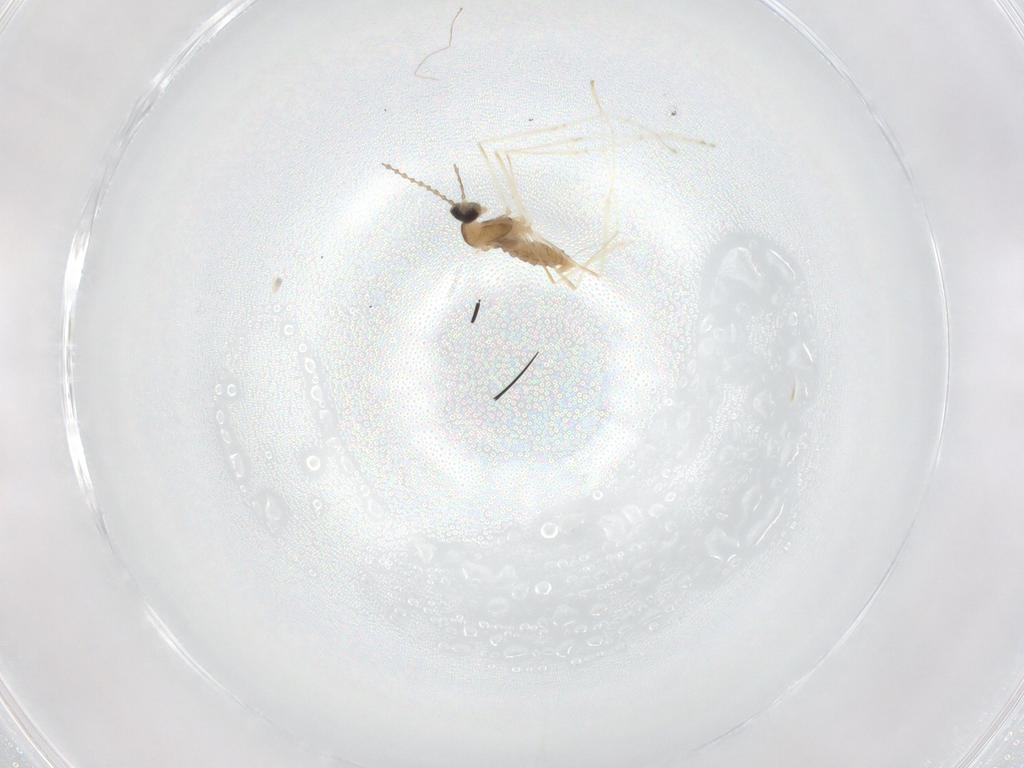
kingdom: Animalia
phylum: Arthropoda
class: Insecta
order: Diptera
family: Cecidomyiidae
